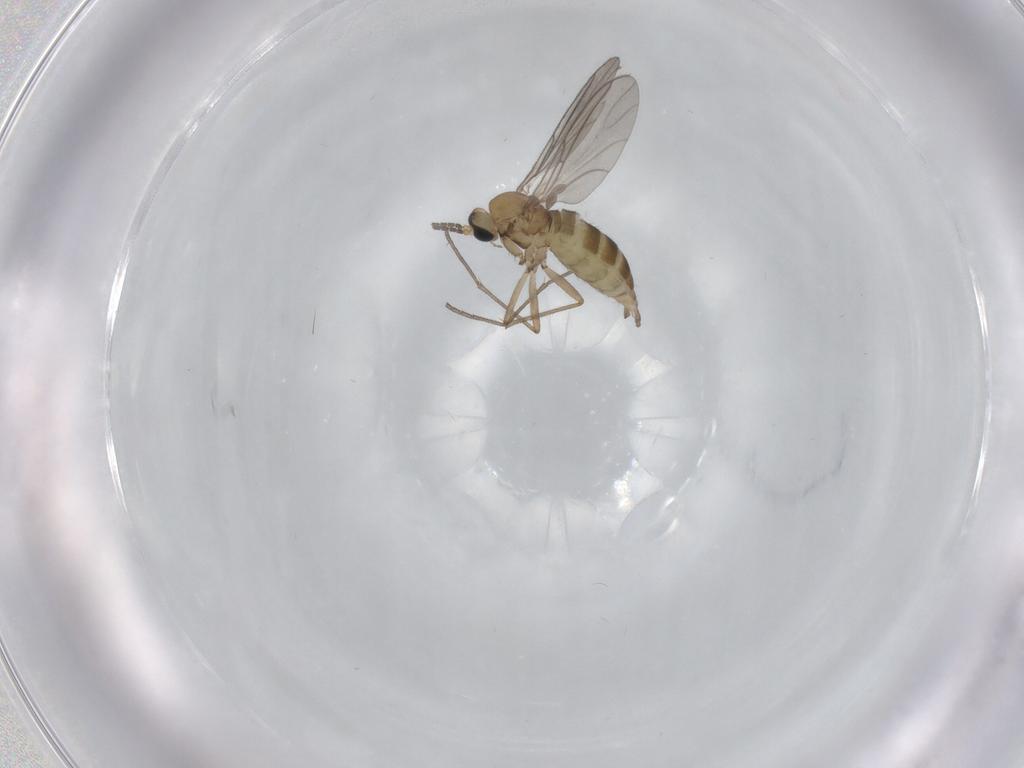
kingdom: Animalia
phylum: Arthropoda
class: Insecta
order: Diptera
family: Sciaridae
